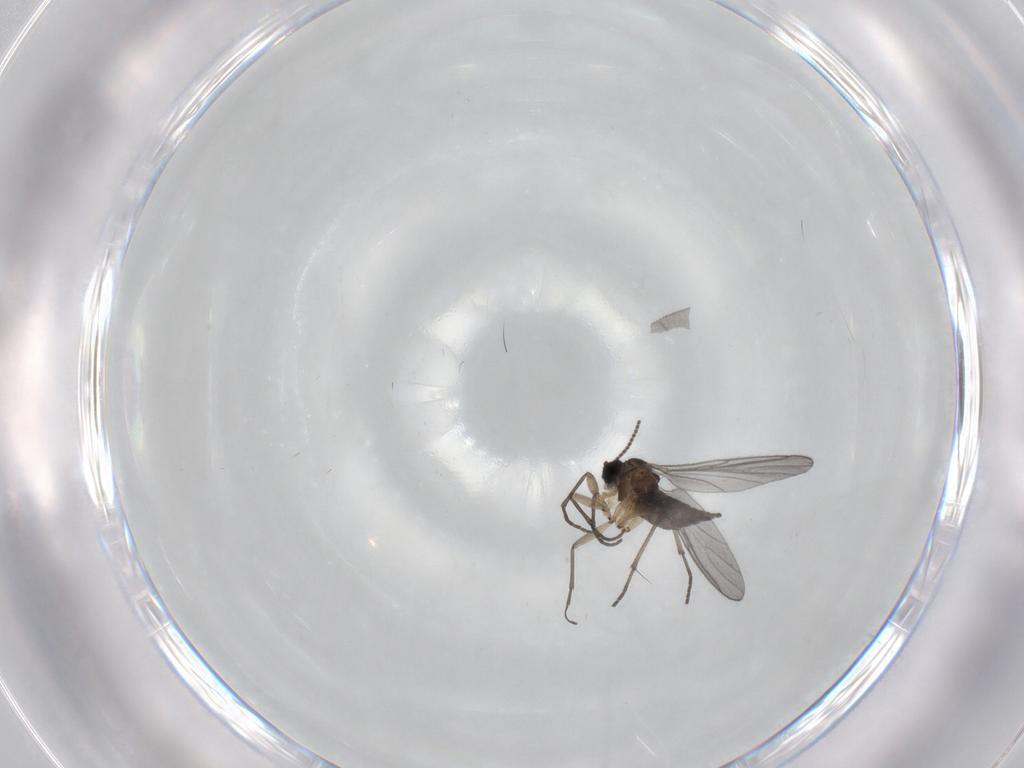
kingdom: Animalia
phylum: Arthropoda
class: Insecta
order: Diptera
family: Sciaridae
